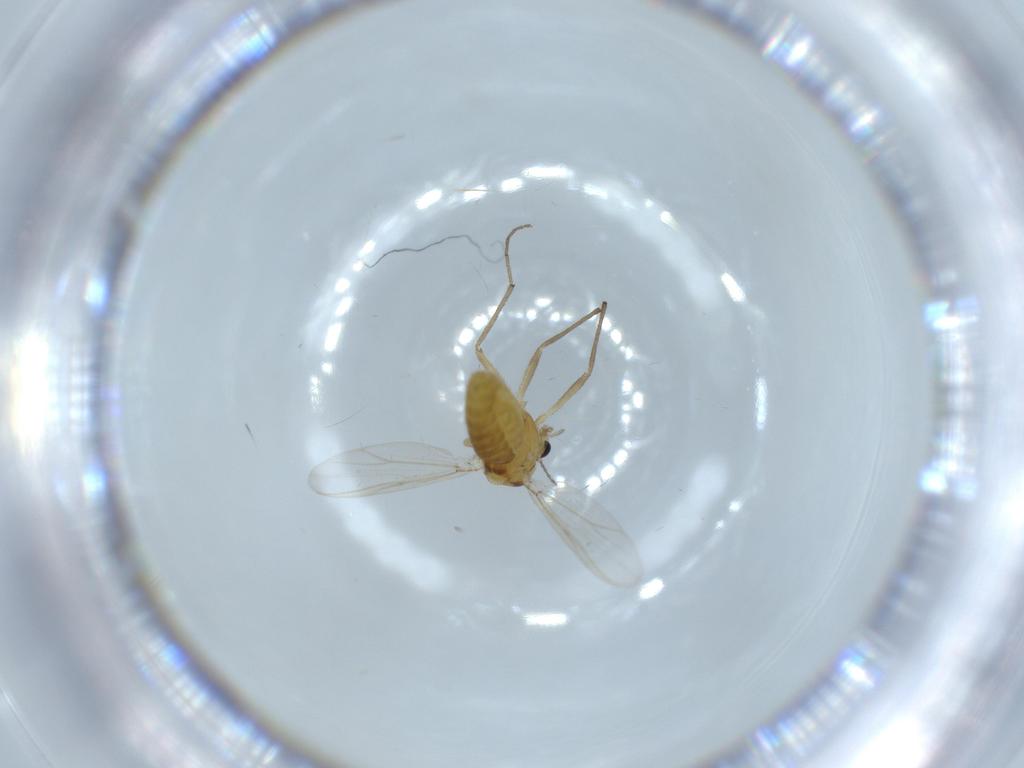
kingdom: Animalia
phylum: Arthropoda
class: Insecta
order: Diptera
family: Chironomidae
